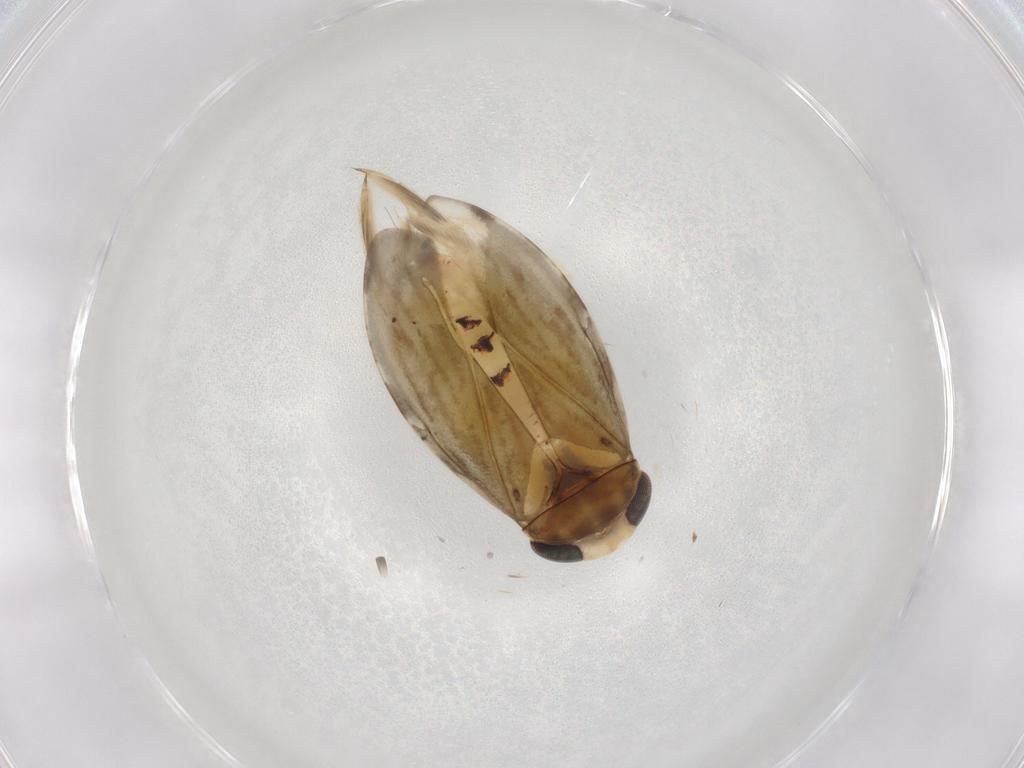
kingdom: Animalia
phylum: Arthropoda
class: Insecta
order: Hemiptera
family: Corixidae
